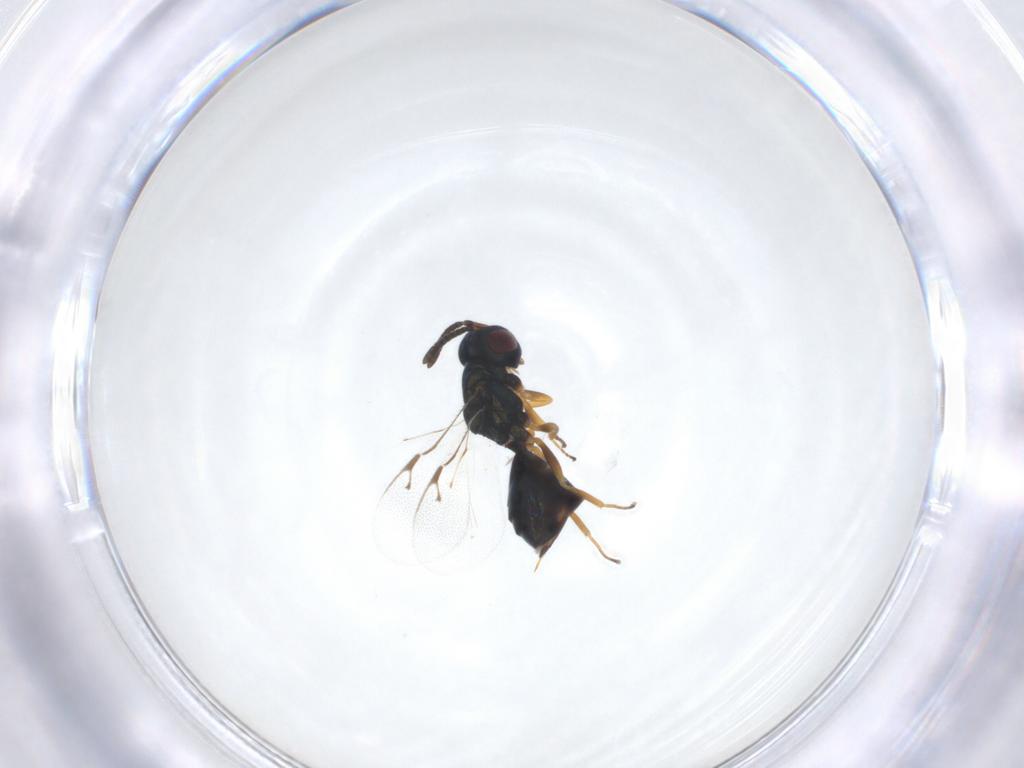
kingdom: Animalia
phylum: Arthropoda
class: Insecta
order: Hymenoptera
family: Pteromalidae
